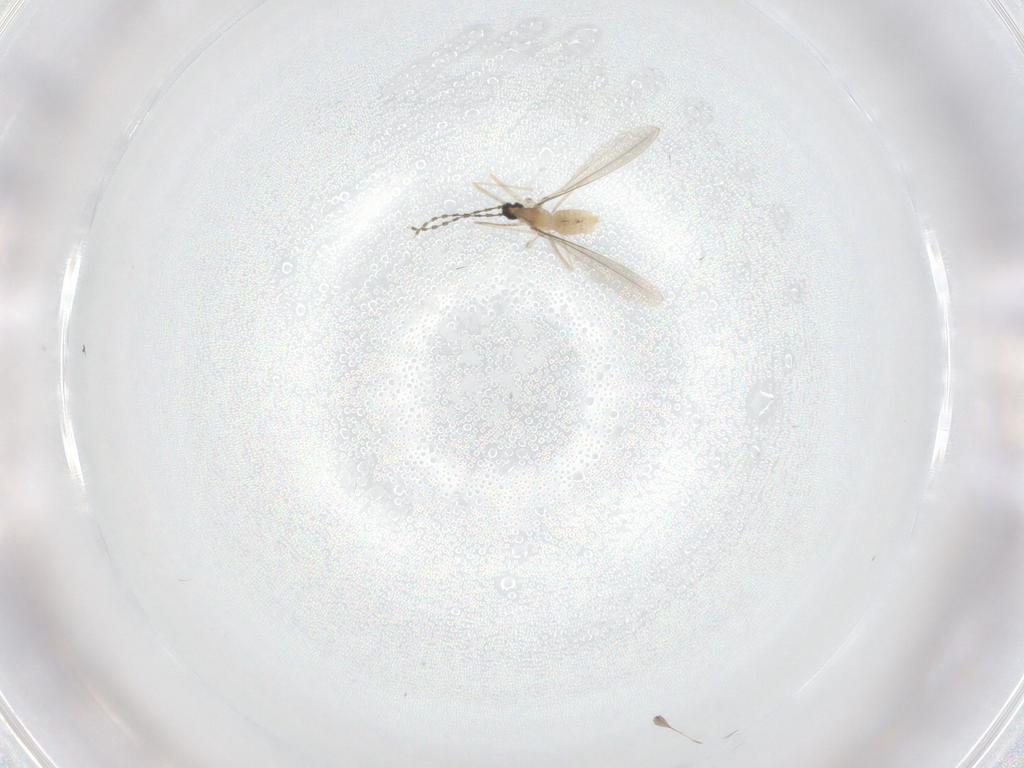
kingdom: Animalia
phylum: Arthropoda
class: Insecta
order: Diptera
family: Cecidomyiidae
